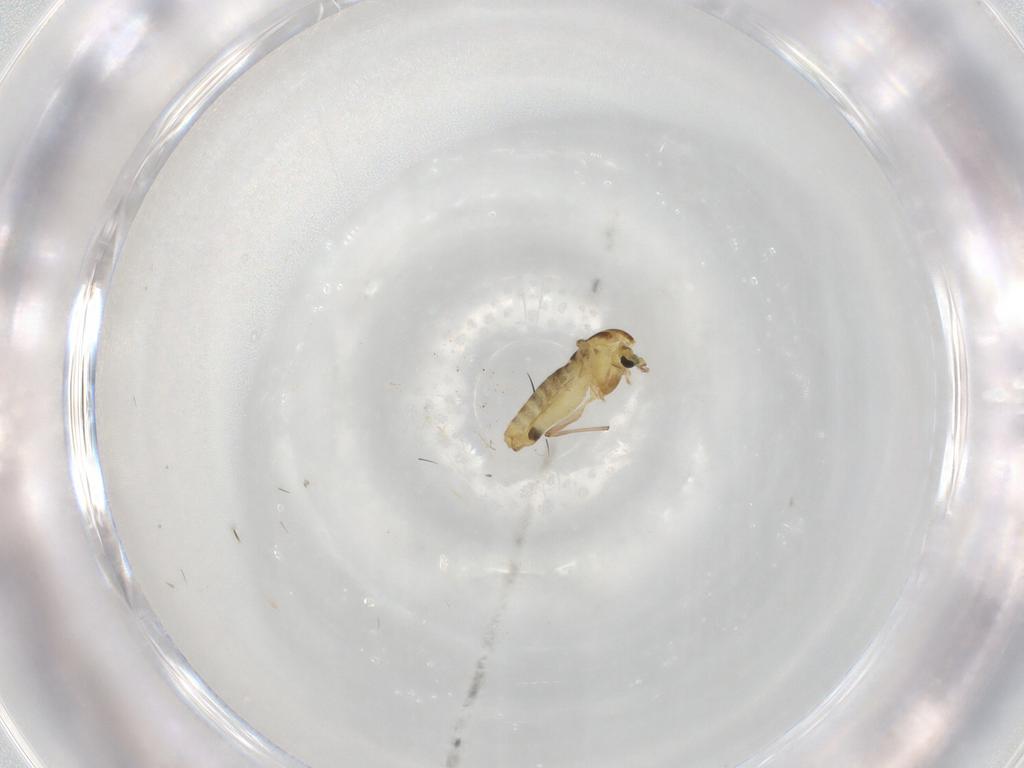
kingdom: Animalia
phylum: Arthropoda
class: Insecta
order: Diptera
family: Chironomidae
